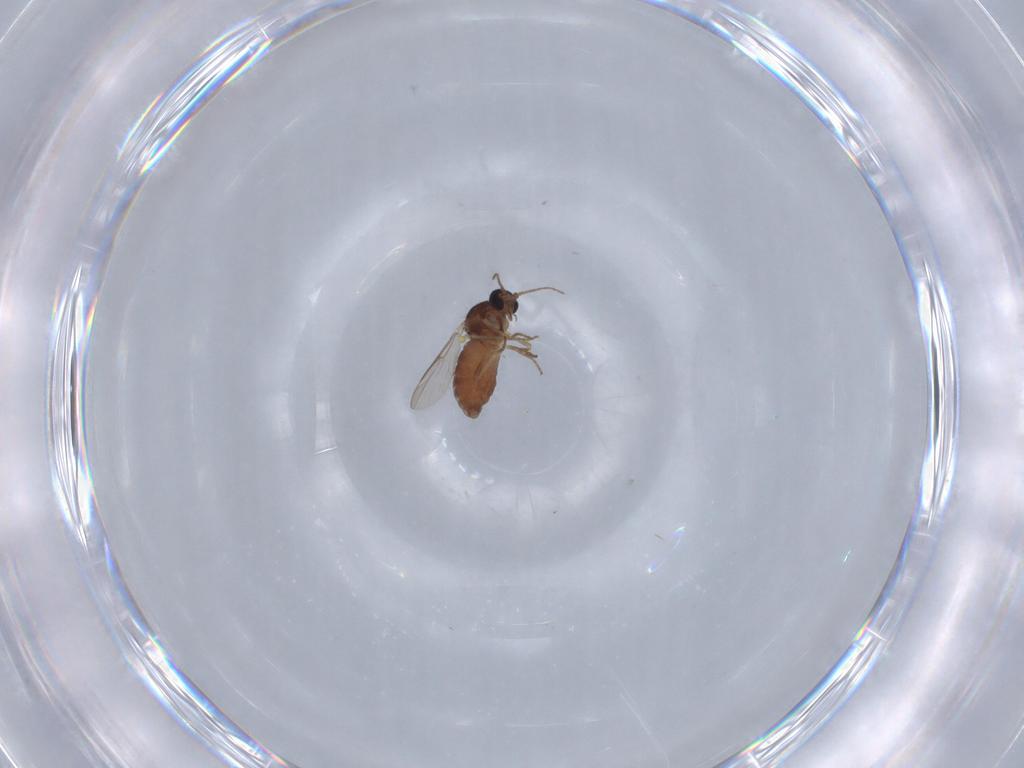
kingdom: Animalia
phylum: Arthropoda
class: Insecta
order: Diptera
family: Ceratopogonidae
